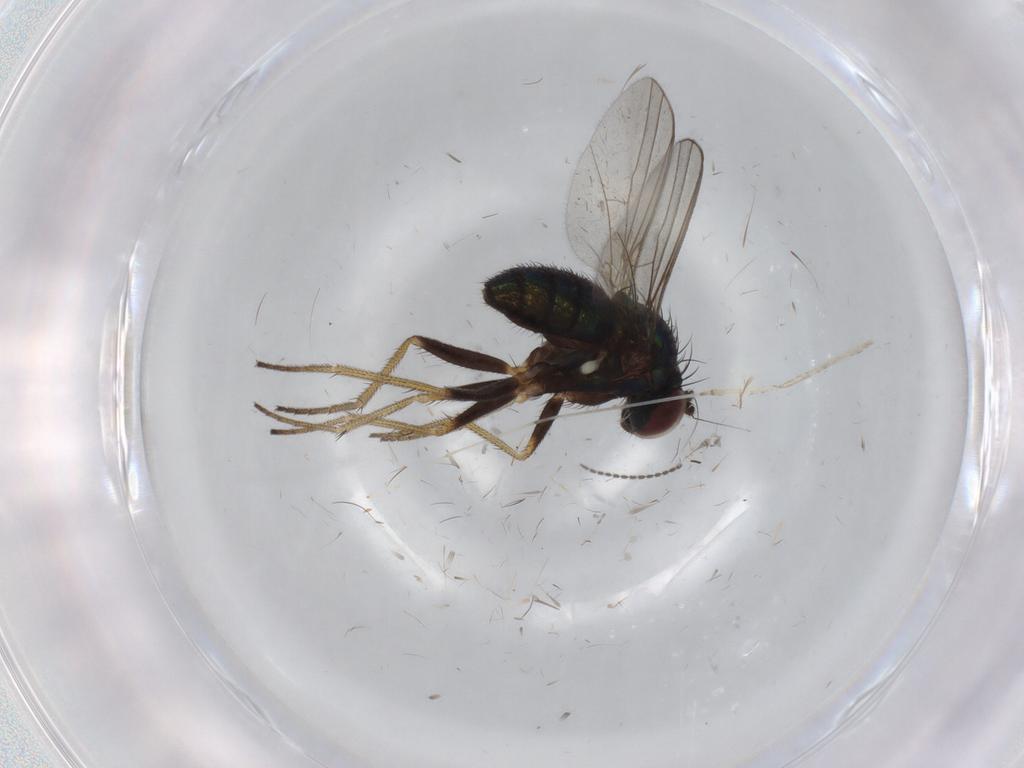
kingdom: Animalia
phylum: Arthropoda
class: Insecta
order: Diptera
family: Cecidomyiidae
